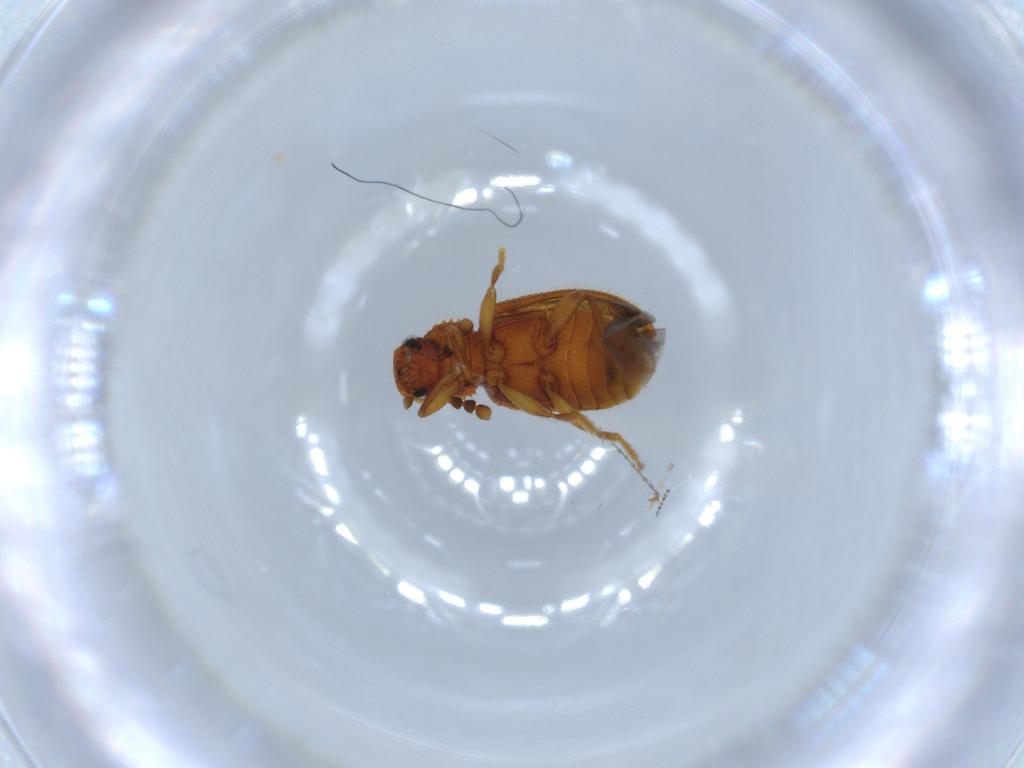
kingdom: Animalia
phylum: Arthropoda
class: Insecta
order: Coleoptera
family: Tenebrionidae
